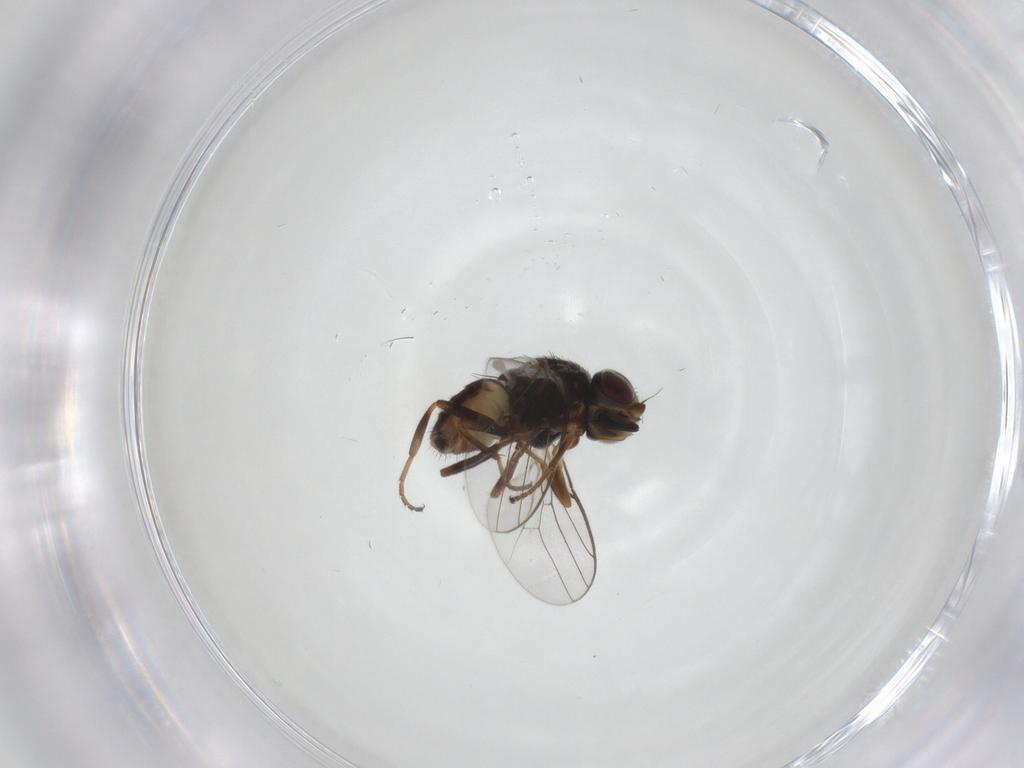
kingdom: Animalia
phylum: Arthropoda
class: Insecta
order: Diptera
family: Chloropidae
